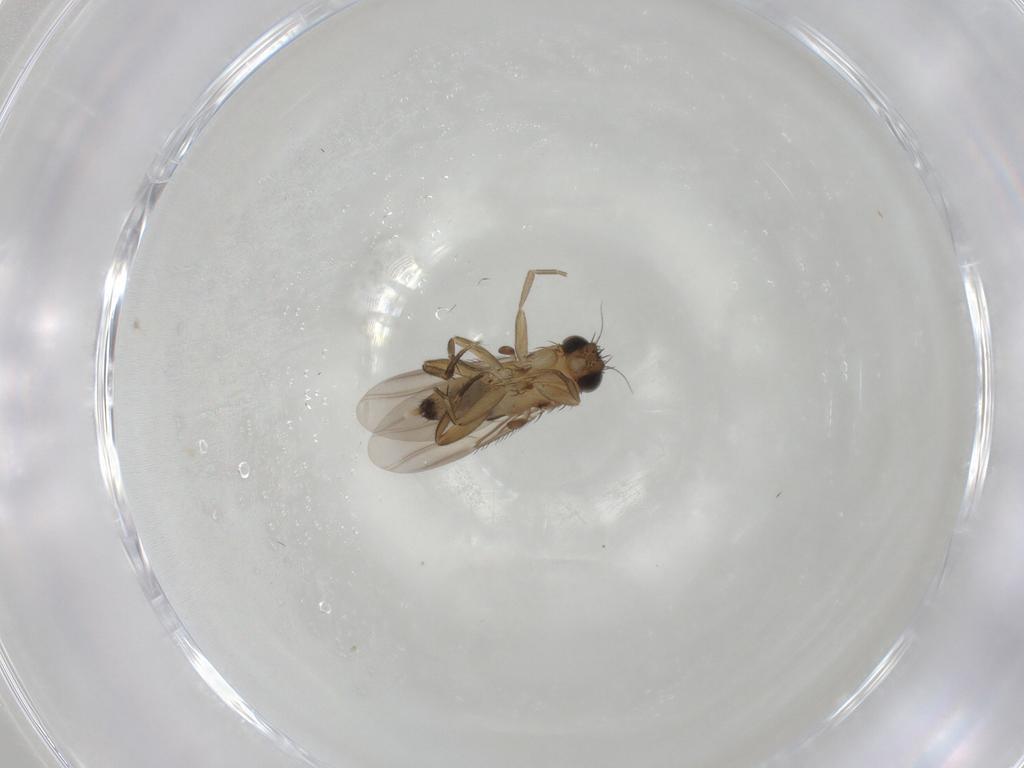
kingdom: Animalia
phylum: Arthropoda
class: Insecta
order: Diptera
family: Phoridae
